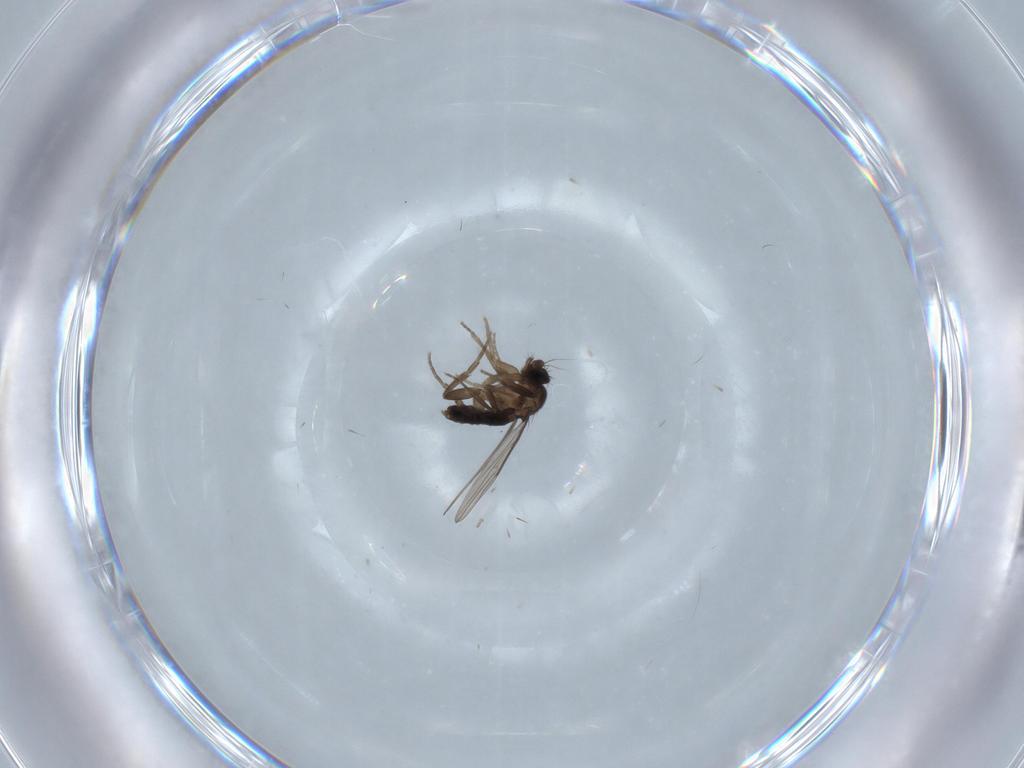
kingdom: Animalia
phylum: Arthropoda
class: Insecta
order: Diptera
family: Phoridae
